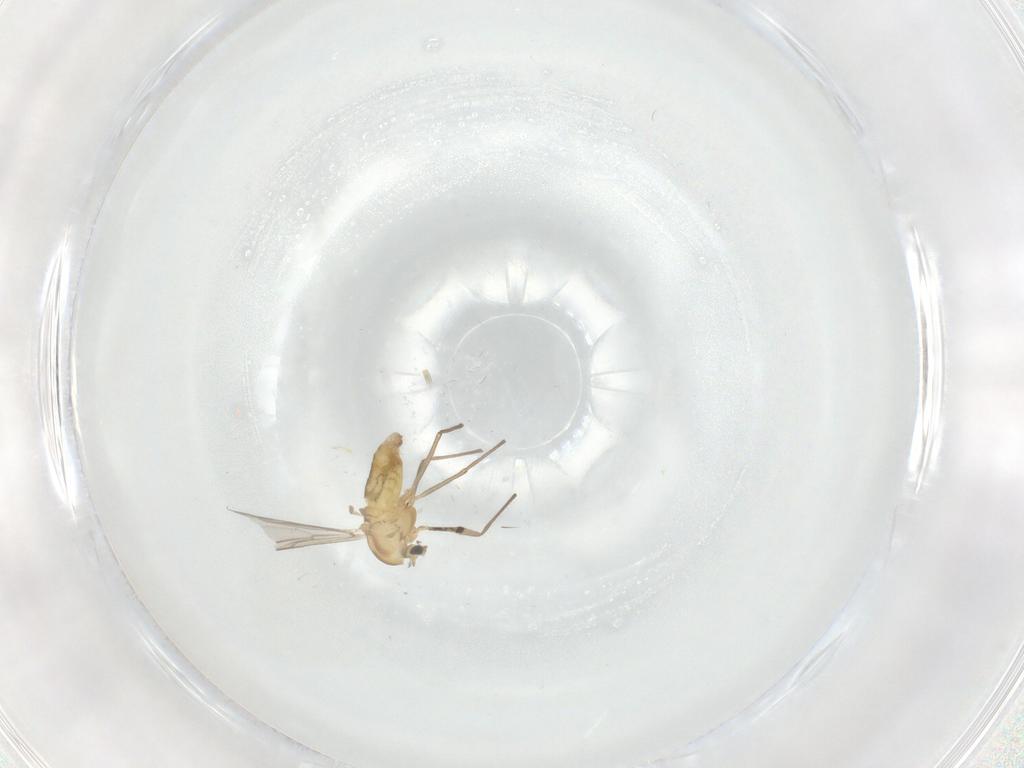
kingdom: Animalia
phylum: Arthropoda
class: Insecta
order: Diptera
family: Chironomidae
